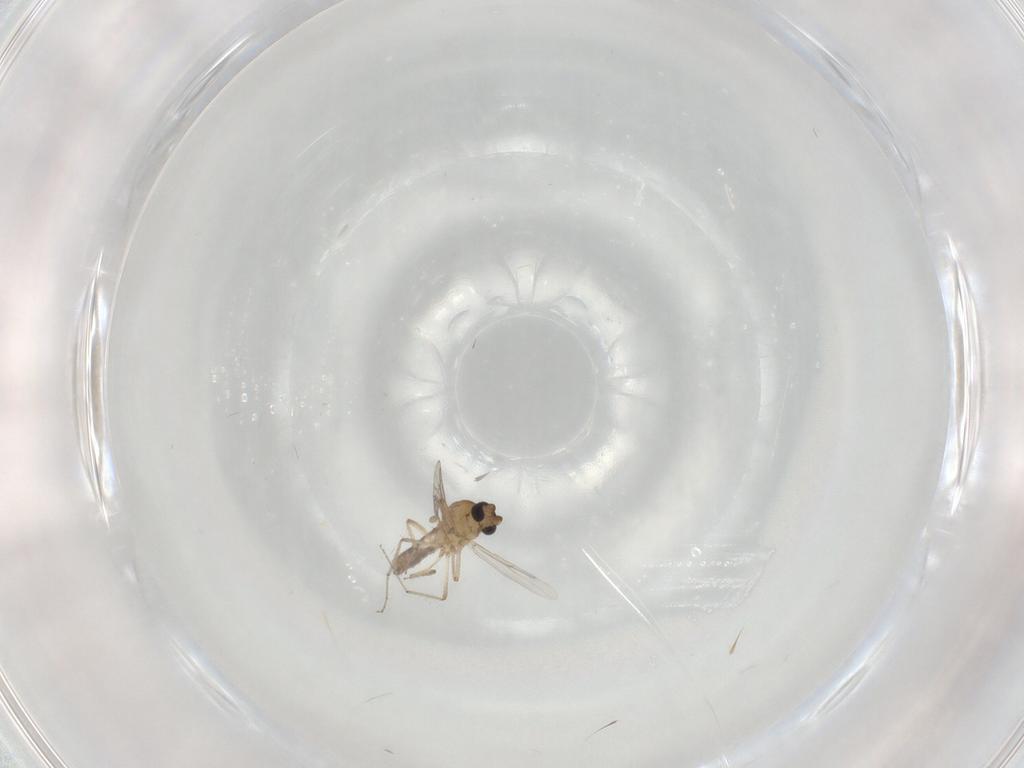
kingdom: Animalia
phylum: Arthropoda
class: Insecta
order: Diptera
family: Ceratopogonidae
